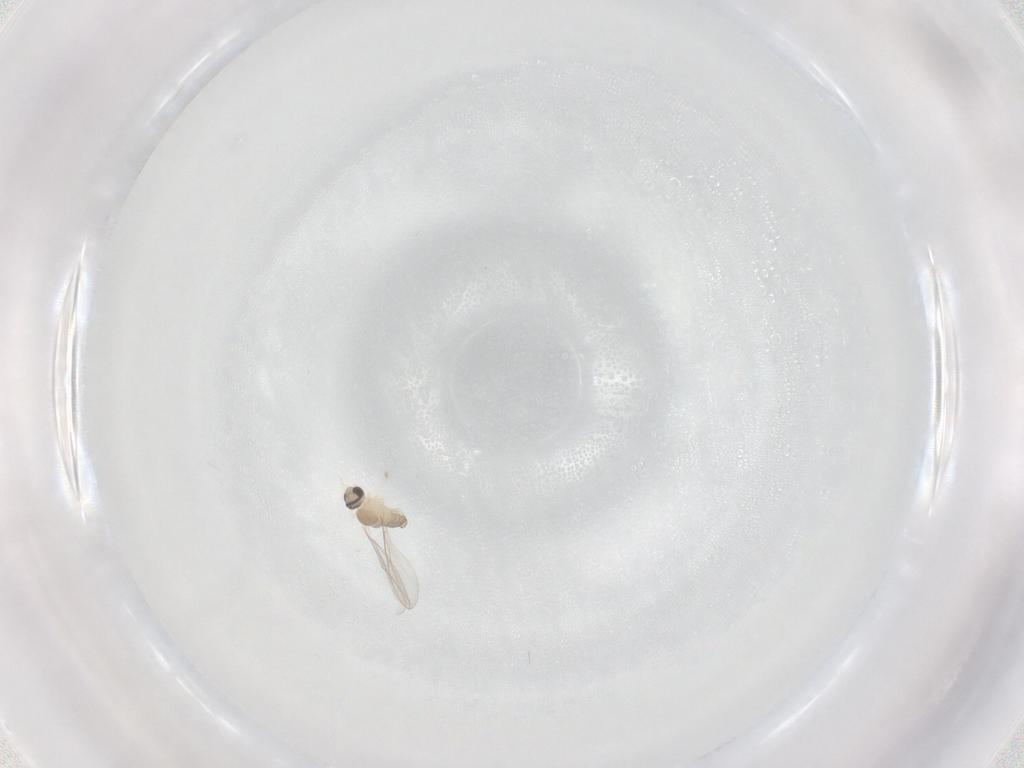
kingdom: Animalia
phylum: Arthropoda
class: Insecta
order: Diptera
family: Cecidomyiidae
